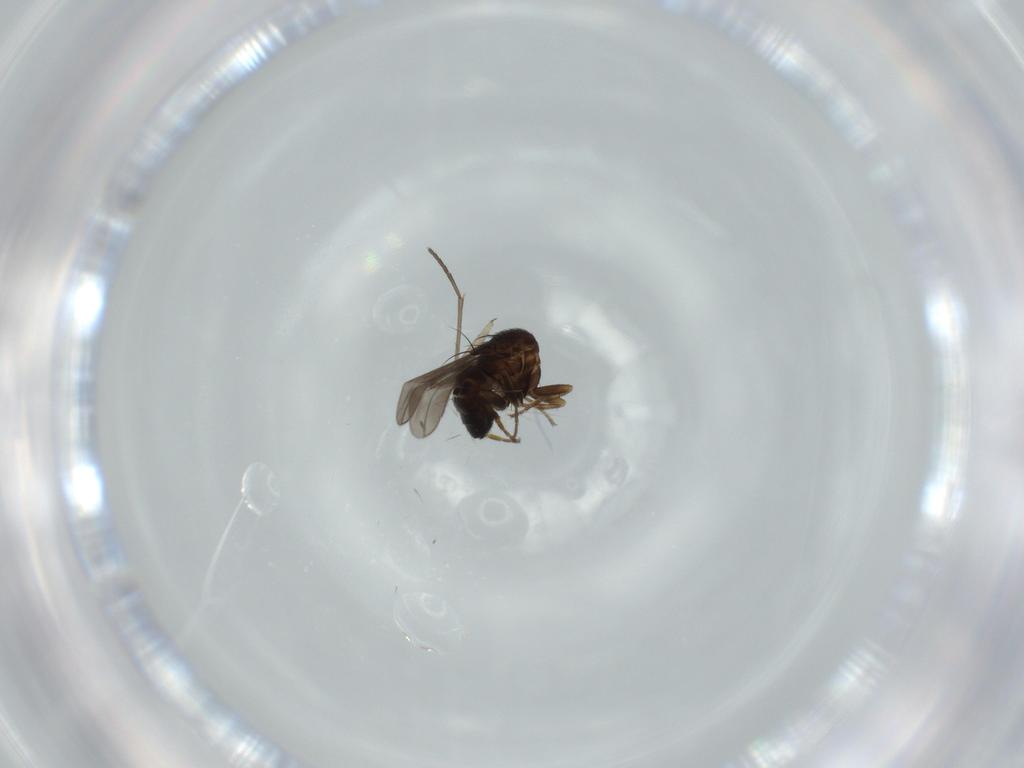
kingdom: Animalia
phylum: Arthropoda
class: Insecta
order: Diptera
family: Sciaridae
